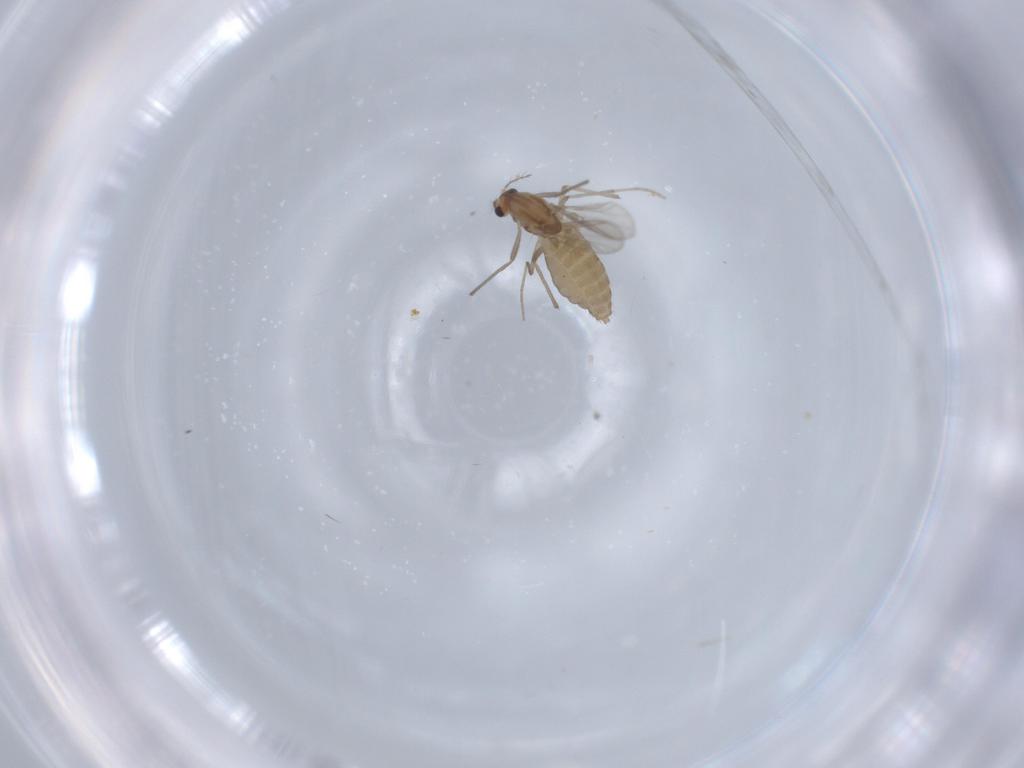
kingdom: Animalia
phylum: Arthropoda
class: Insecta
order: Diptera
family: Chironomidae
